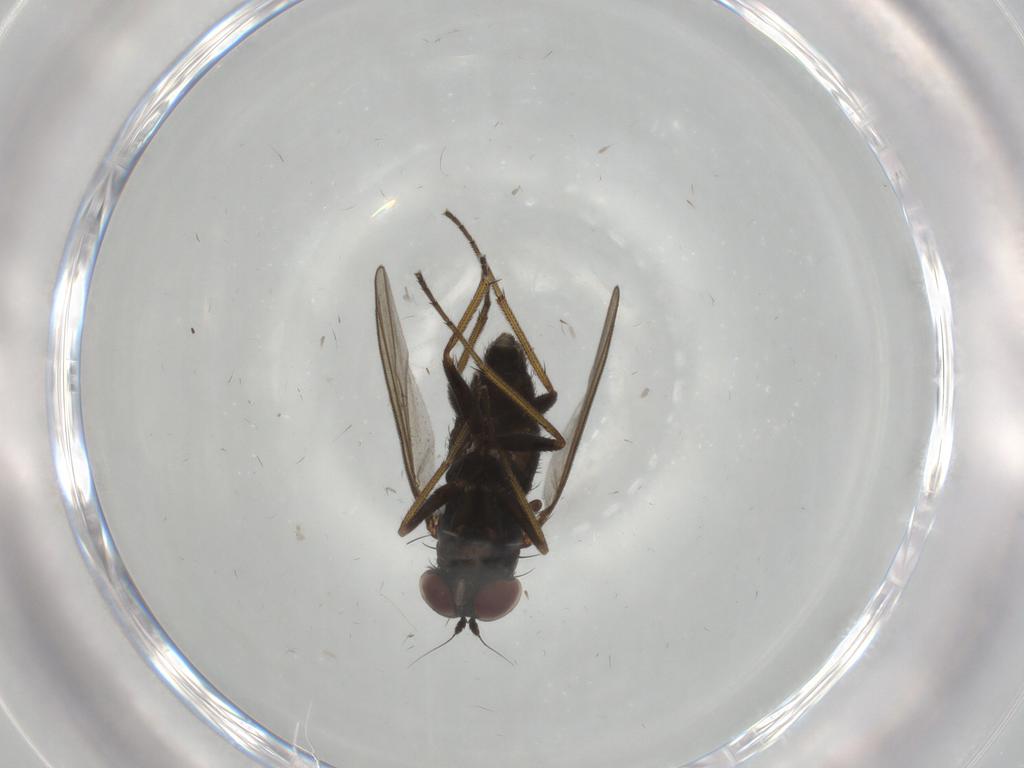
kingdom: Animalia
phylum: Arthropoda
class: Insecta
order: Diptera
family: Dolichopodidae
